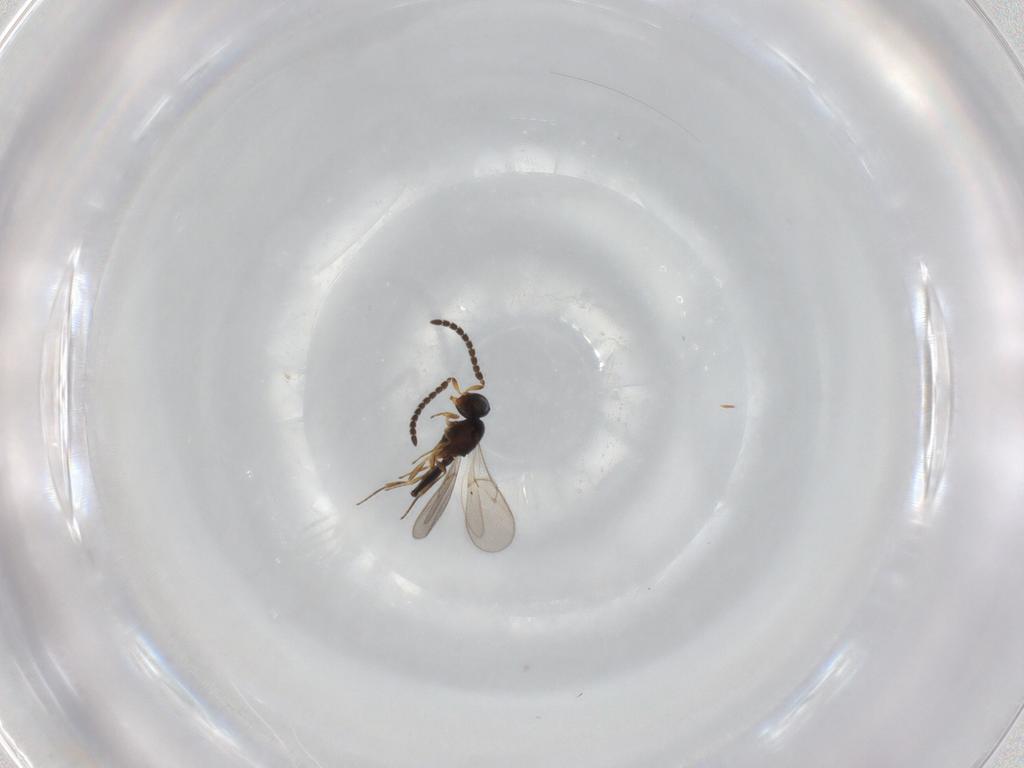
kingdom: Animalia
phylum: Arthropoda
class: Insecta
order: Hymenoptera
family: Scelionidae
